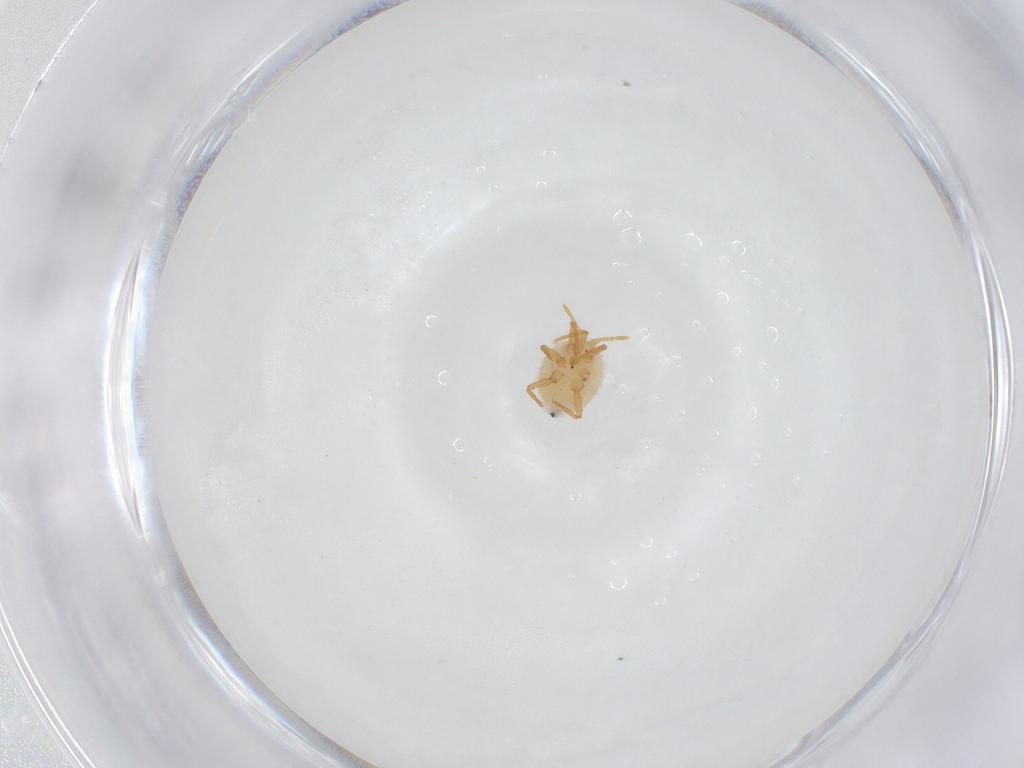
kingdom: Animalia
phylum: Arthropoda
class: Insecta
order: Hemiptera
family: Ortheziidae
